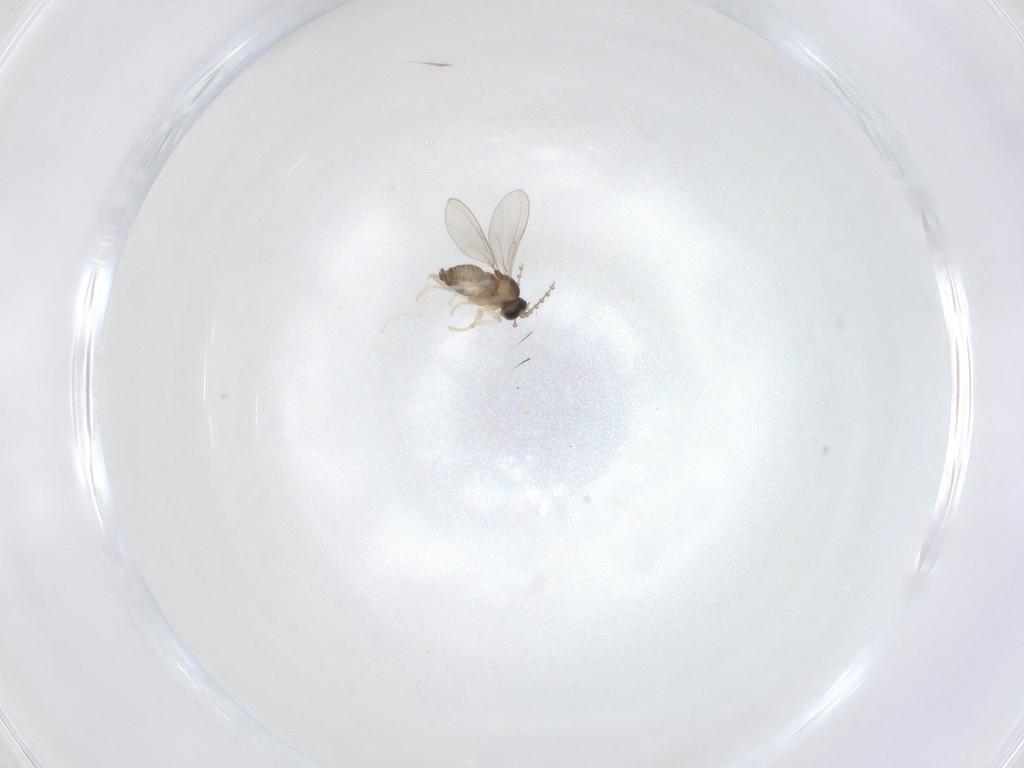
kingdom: Animalia
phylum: Arthropoda
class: Insecta
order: Diptera
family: Cecidomyiidae
